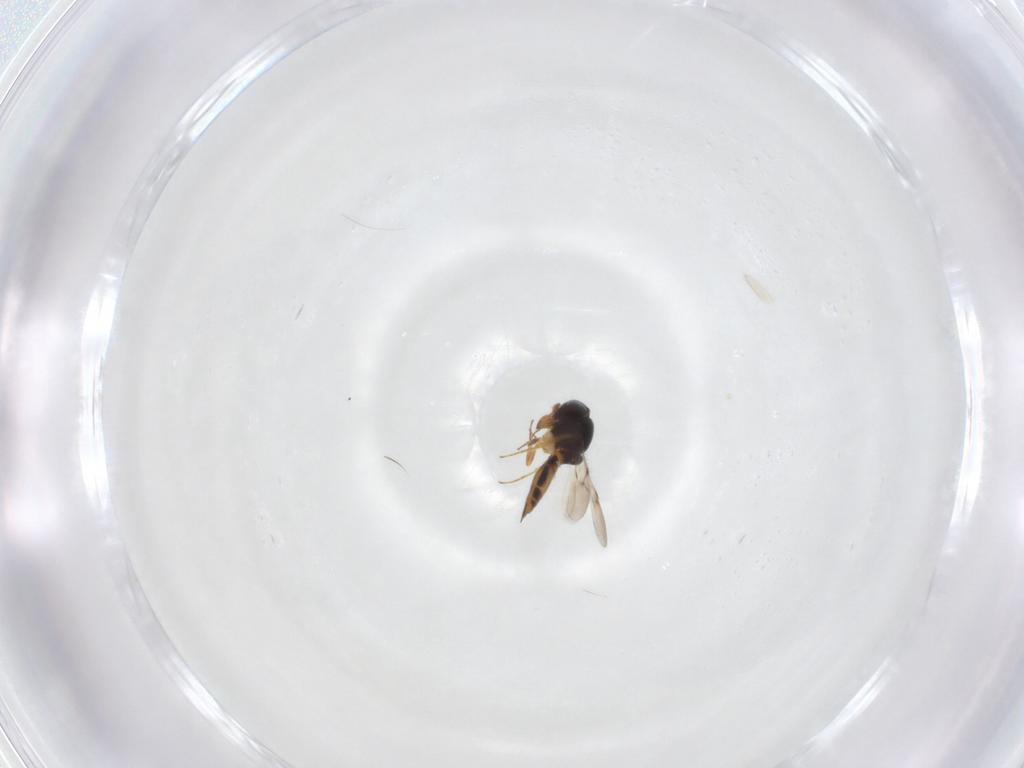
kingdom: Animalia
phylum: Arthropoda
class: Insecta
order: Hymenoptera
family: Scelionidae
